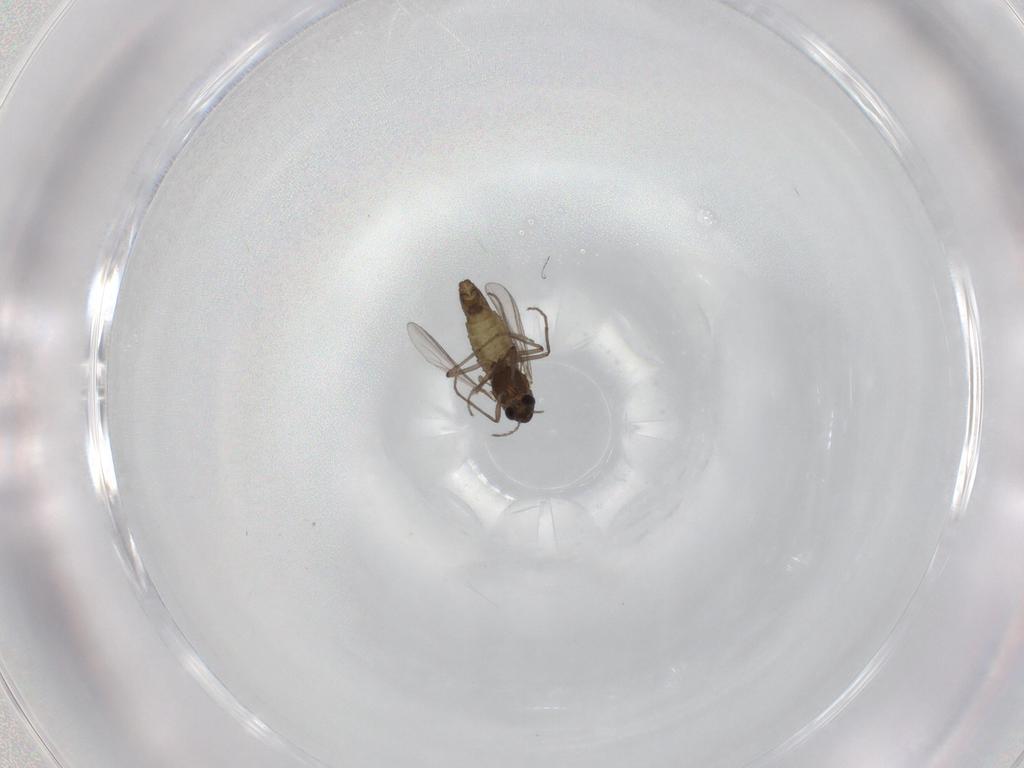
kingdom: Animalia
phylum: Arthropoda
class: Insecta
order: Diptera
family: Chironomidae
